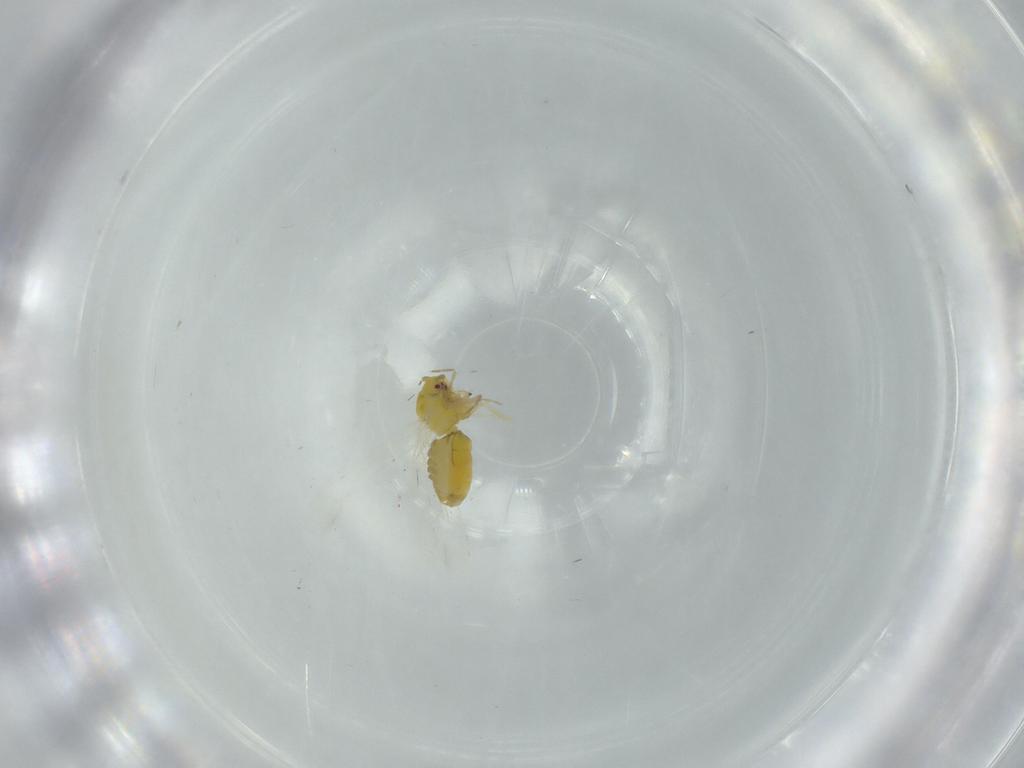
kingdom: Animalia
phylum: Arthropoda
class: Insecta
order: Hemiptera
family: Aleyrodidae
